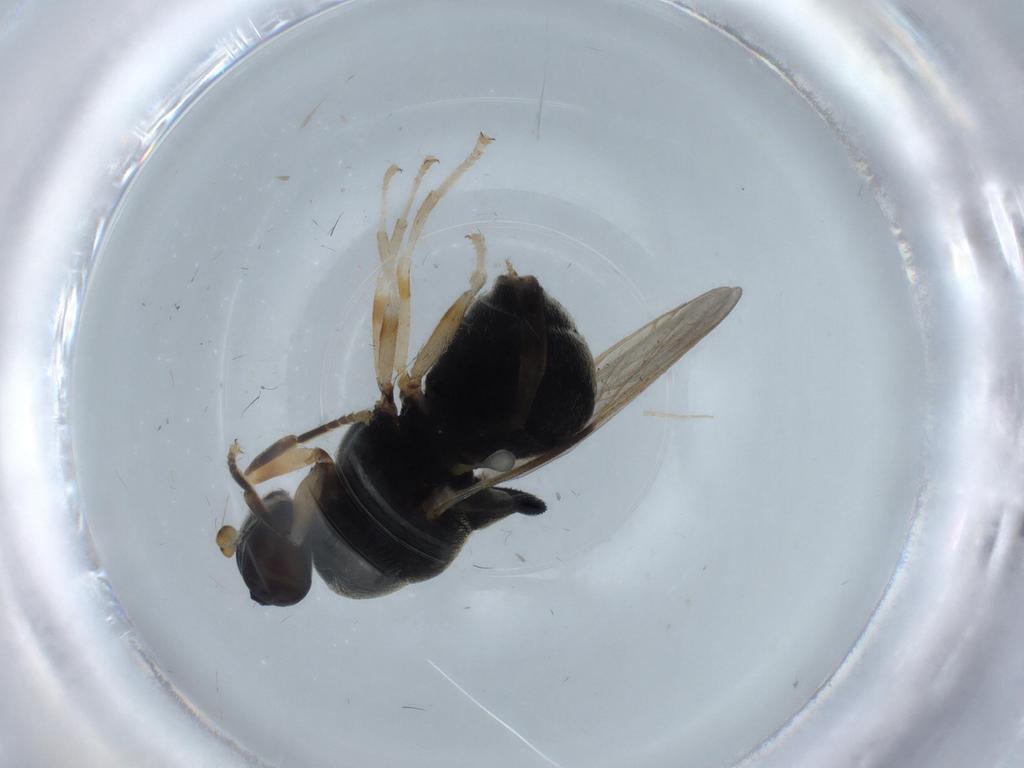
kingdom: Animalia
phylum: Arthropoda
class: Insecta
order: Diptera
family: Stratiomyidae
